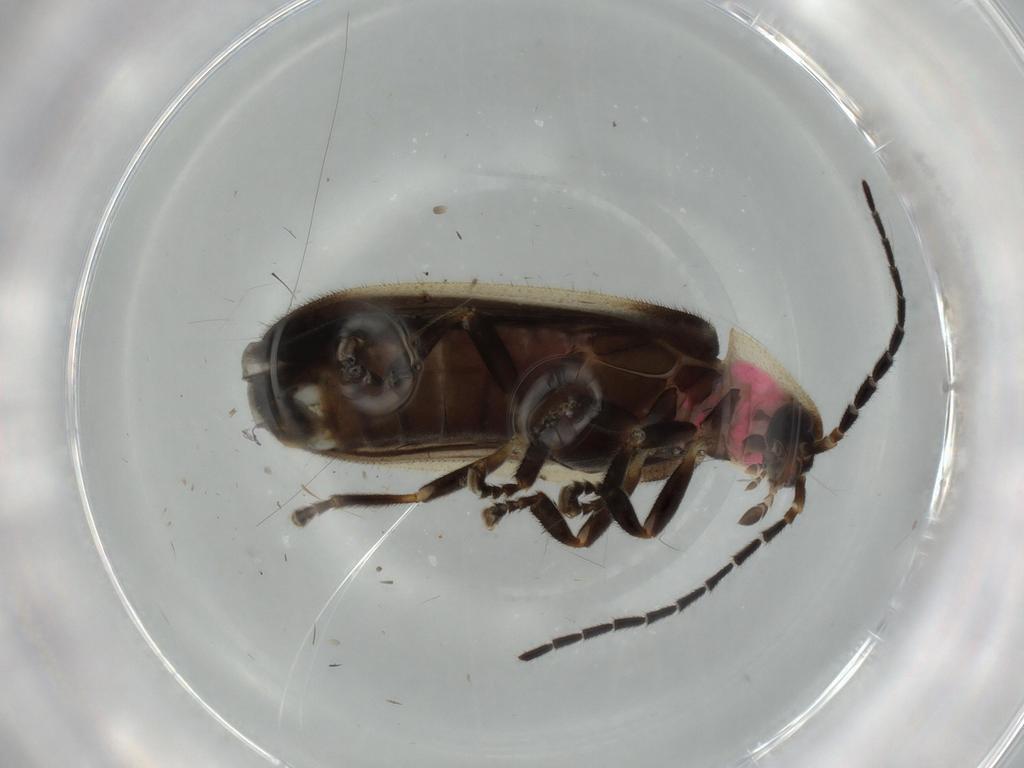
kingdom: Animalia
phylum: Arthropoda
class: Insecta
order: Coleoptera
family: Lampyridae
